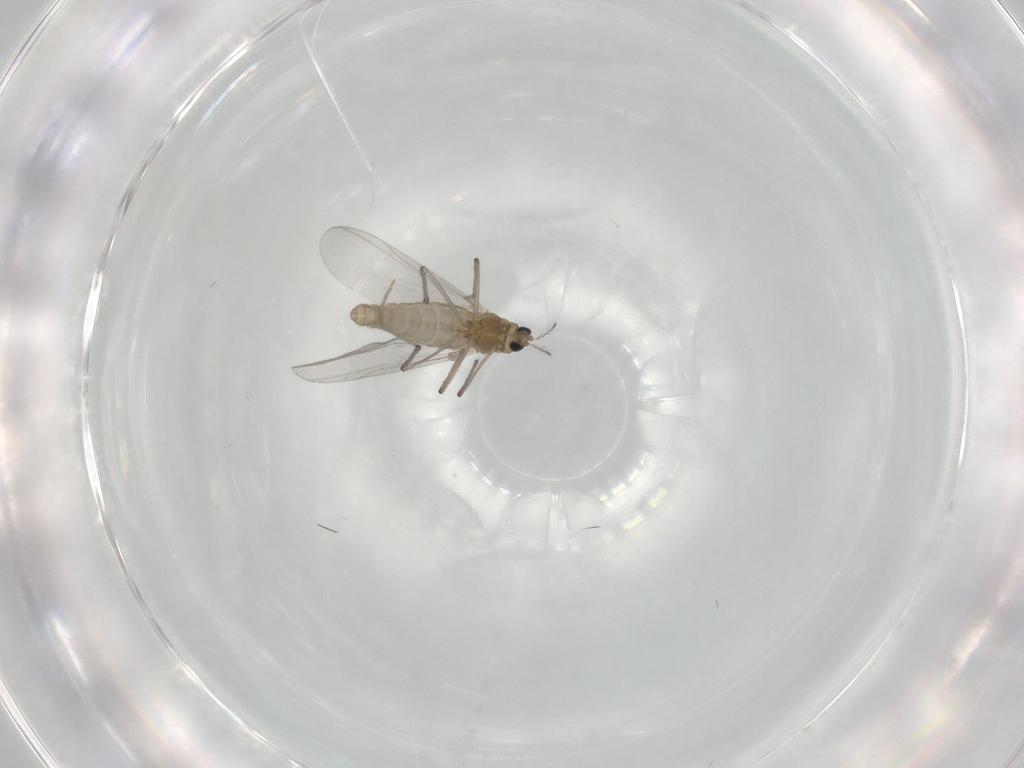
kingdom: Animalia
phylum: Arthropoda
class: Insecta
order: Diptera
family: Chironomidae
